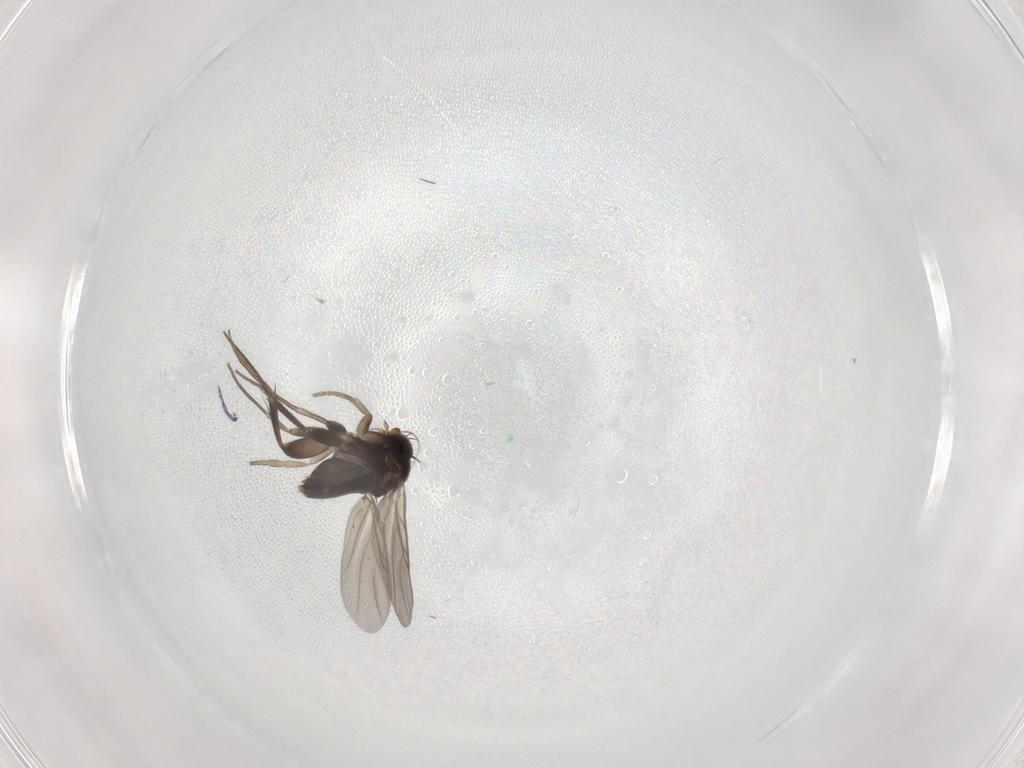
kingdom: Animalia
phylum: Arthropoda
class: Insecta
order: Diptera
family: Phoridae
